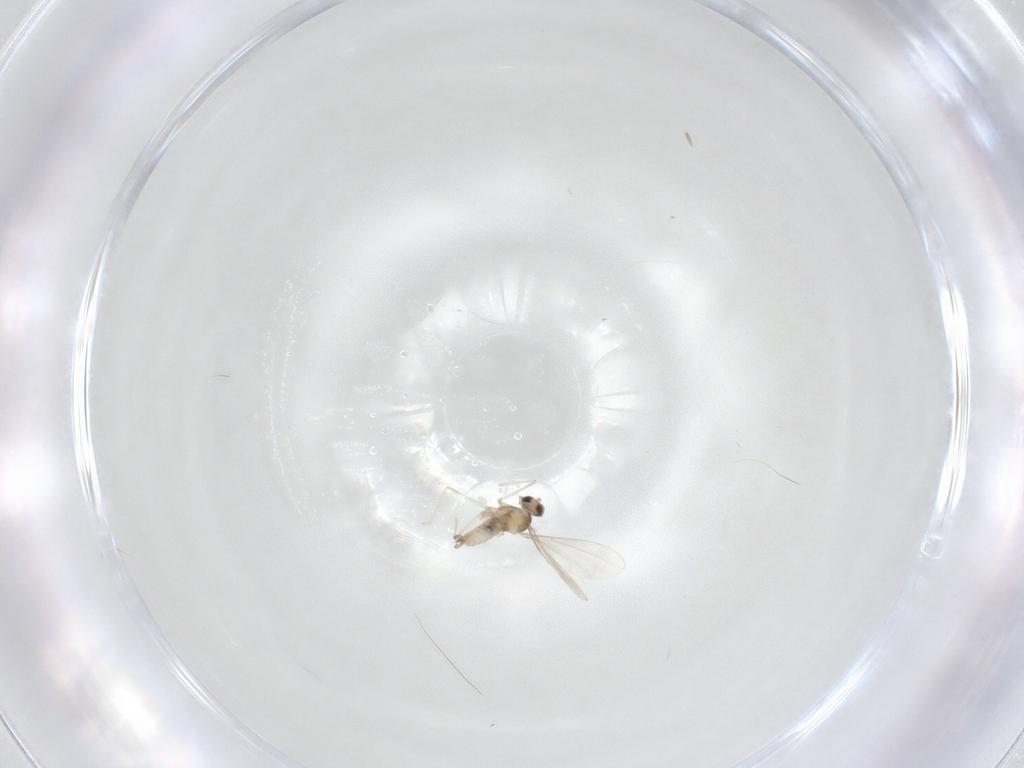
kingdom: Animalia
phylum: Arthropoda
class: Insecta
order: Diptera
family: Cecidomyiidae
